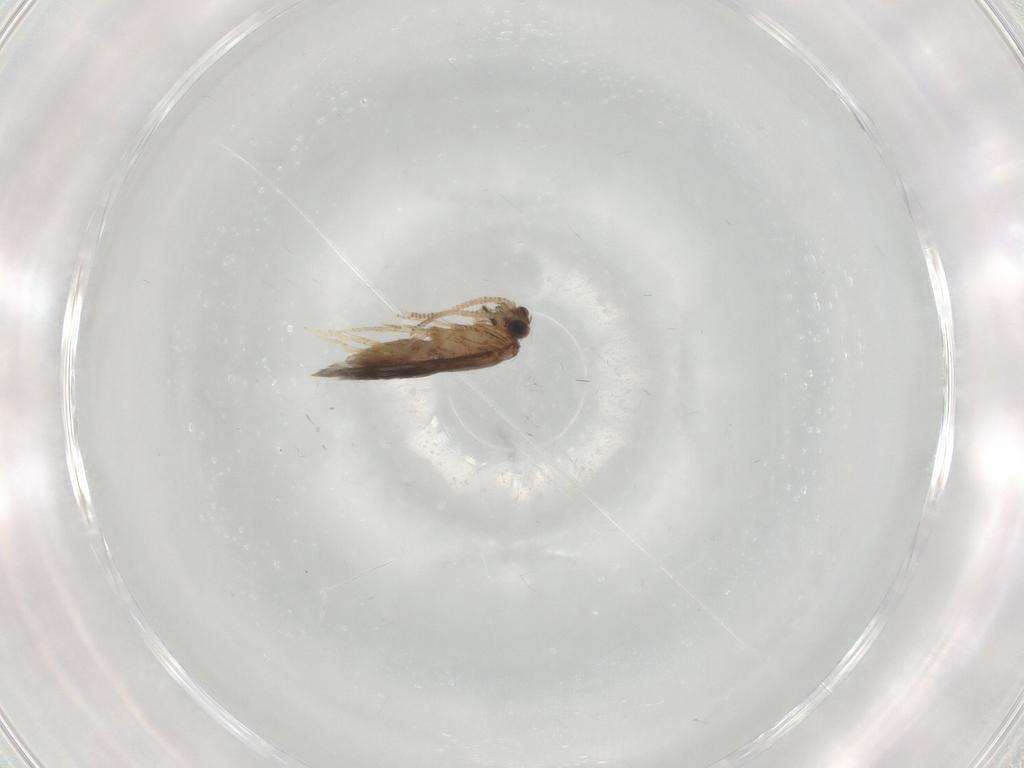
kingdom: Animalia
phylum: Arthropoda
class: Insecta
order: Trichoptera
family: Hydroptilidae
